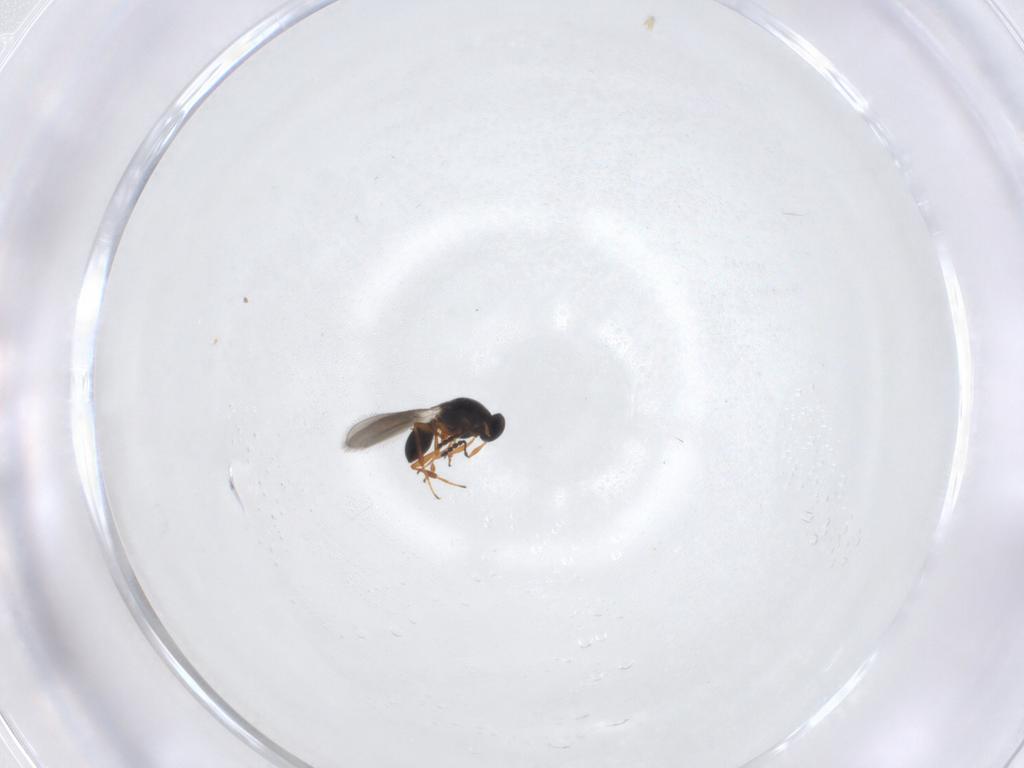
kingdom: Animalia
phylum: Arthropoda
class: Insecta
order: Hymenoptera
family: Platygastridae
